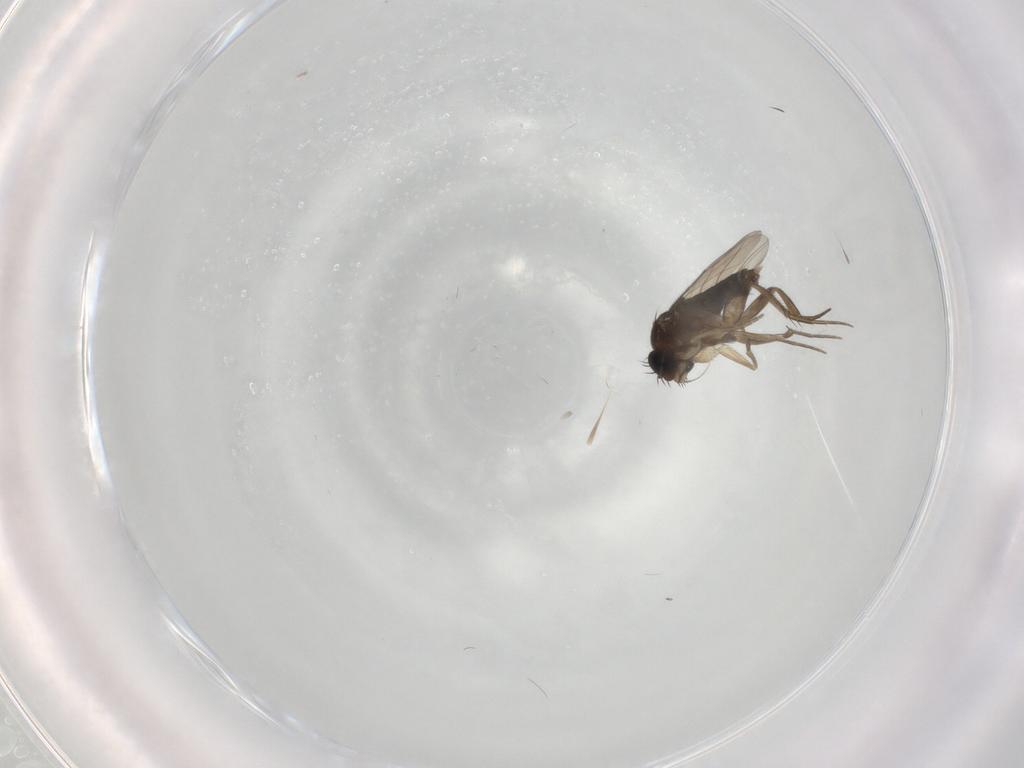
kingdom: Animalia
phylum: Arthropoda
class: Insecta
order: Diptera
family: Phoridae
